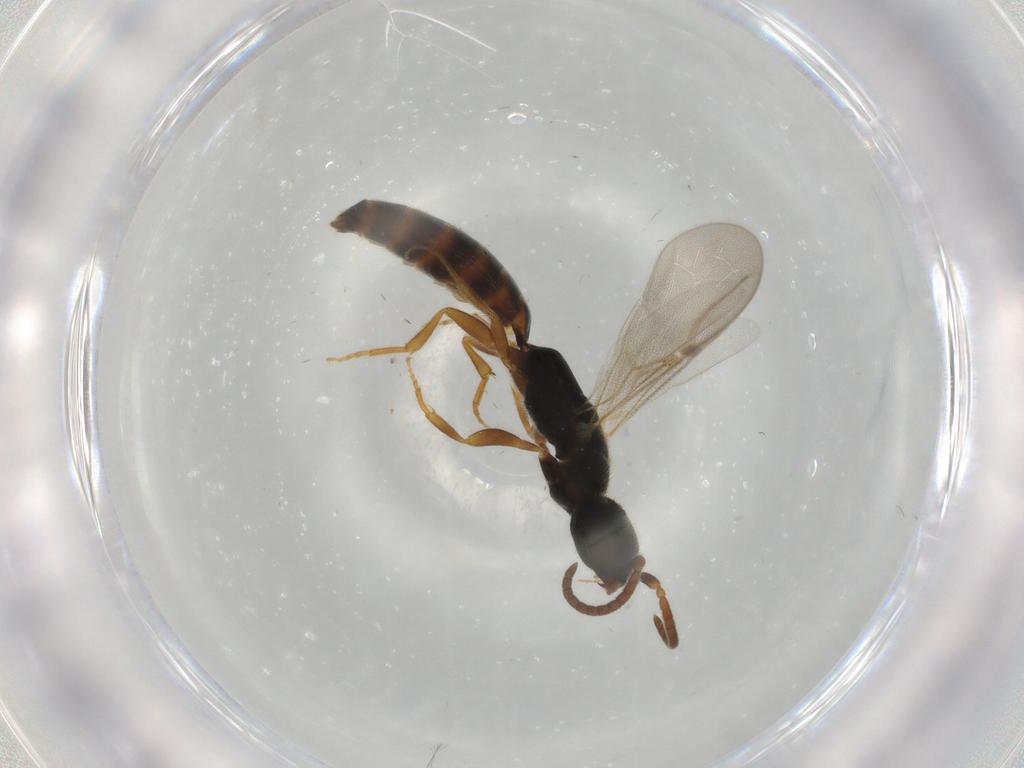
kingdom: Animalia
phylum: Arthropoda
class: Insecta
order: Hymenoptera
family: Bethylidae
